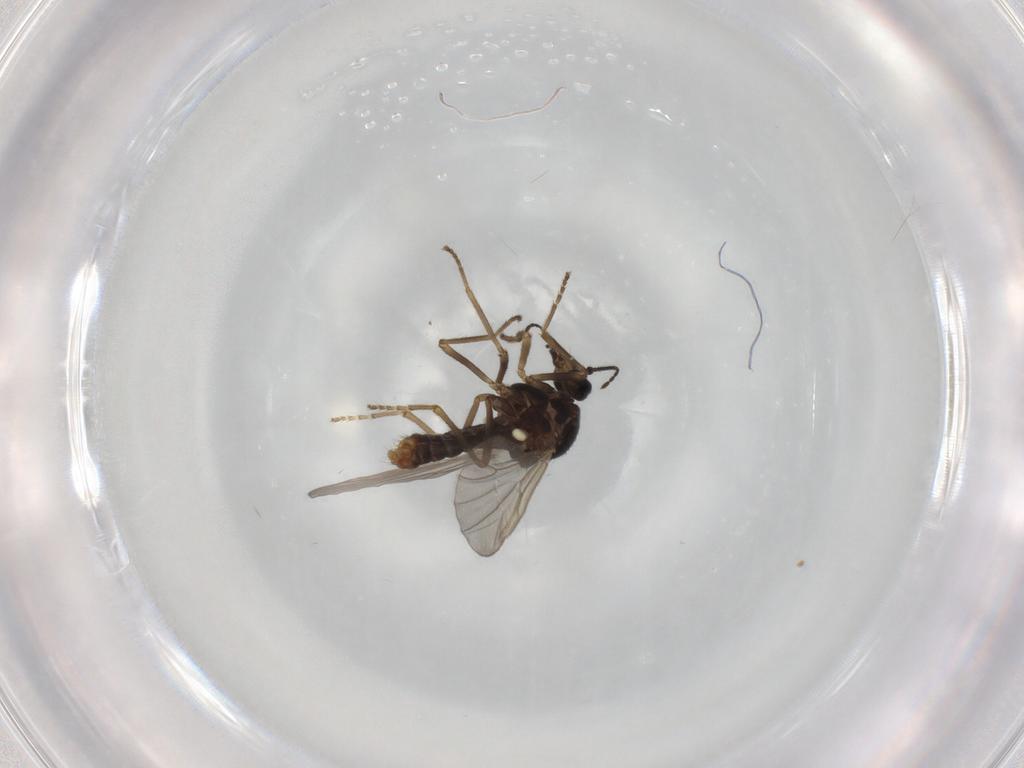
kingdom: Animalia
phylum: Arthropoda
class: Insecta
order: Diptera
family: Ceratopogonidae
